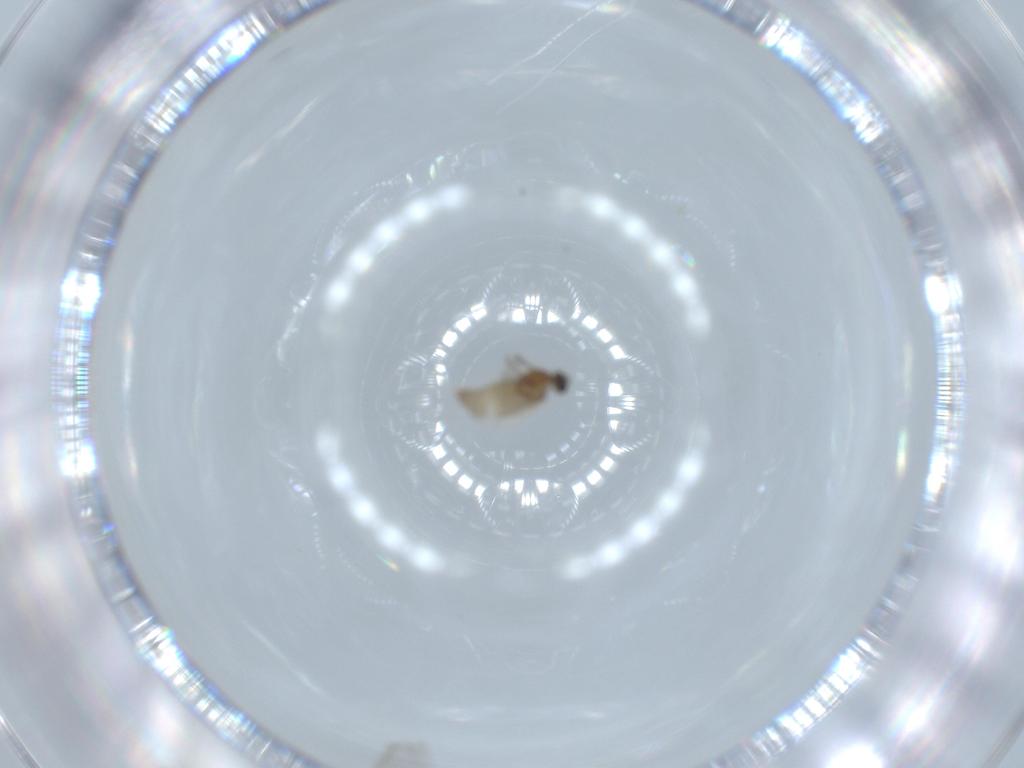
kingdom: Animalia
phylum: Arthropoda
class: Insecta
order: Diptera
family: Cecidomyiidae
